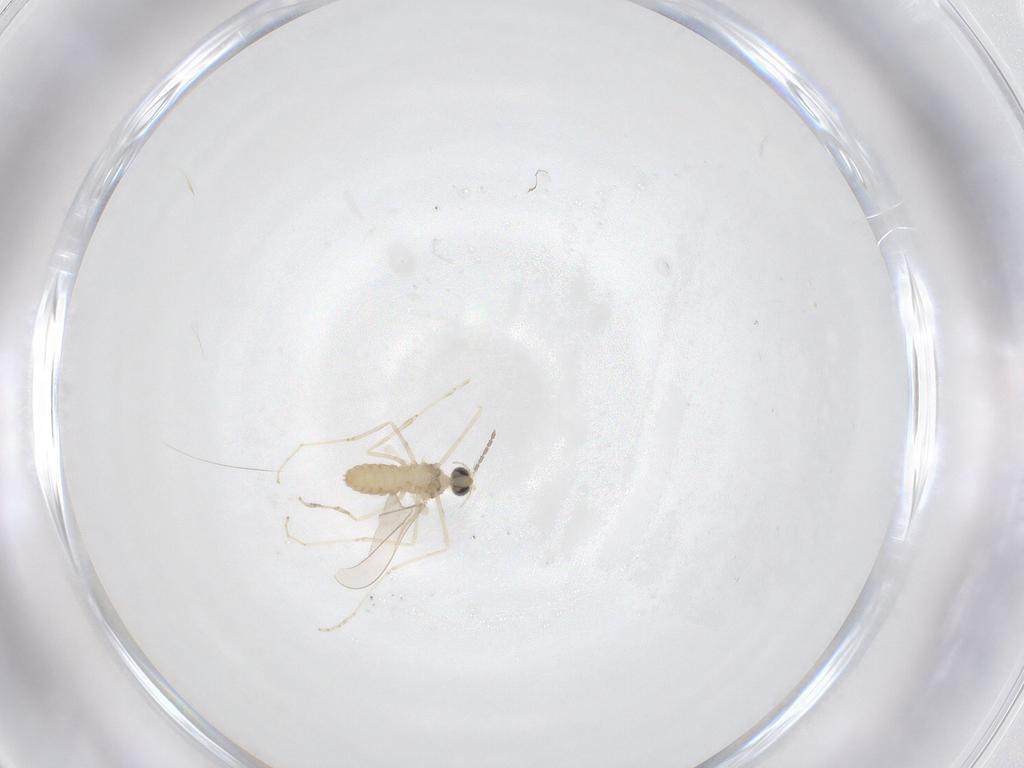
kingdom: Animalia
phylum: Arthropoda
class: Insecta
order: Diptera
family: Cecidomyiidae
